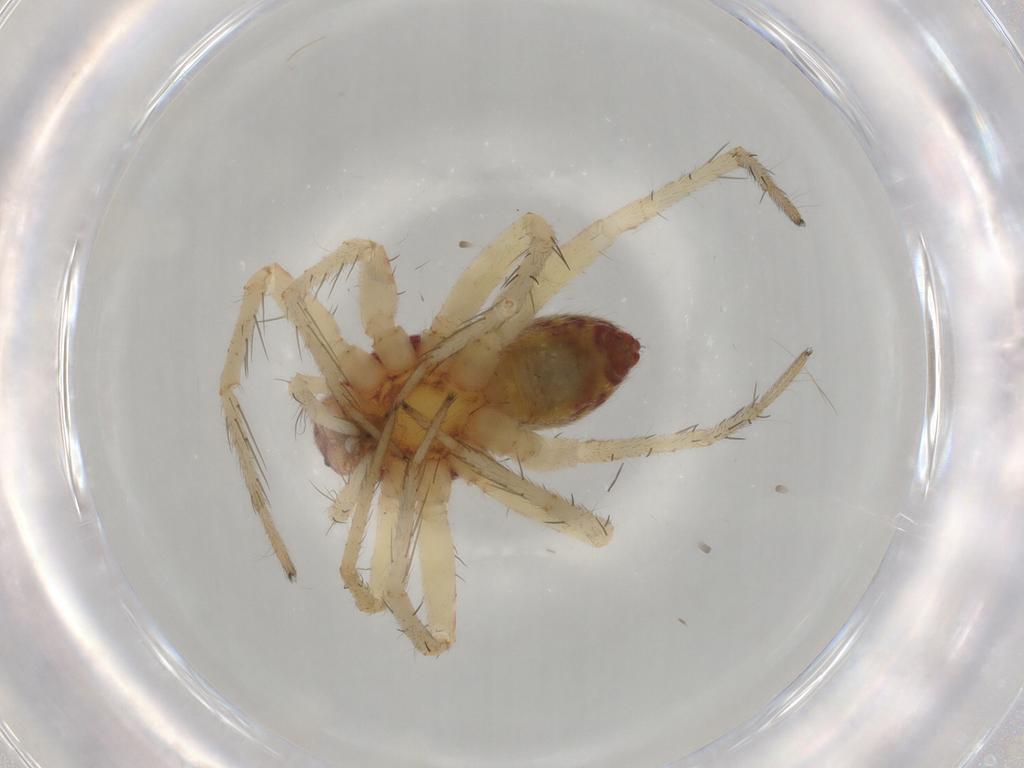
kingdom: Animalia
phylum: Arthropoda
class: Arachnida
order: Araneae
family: Pisauridae
